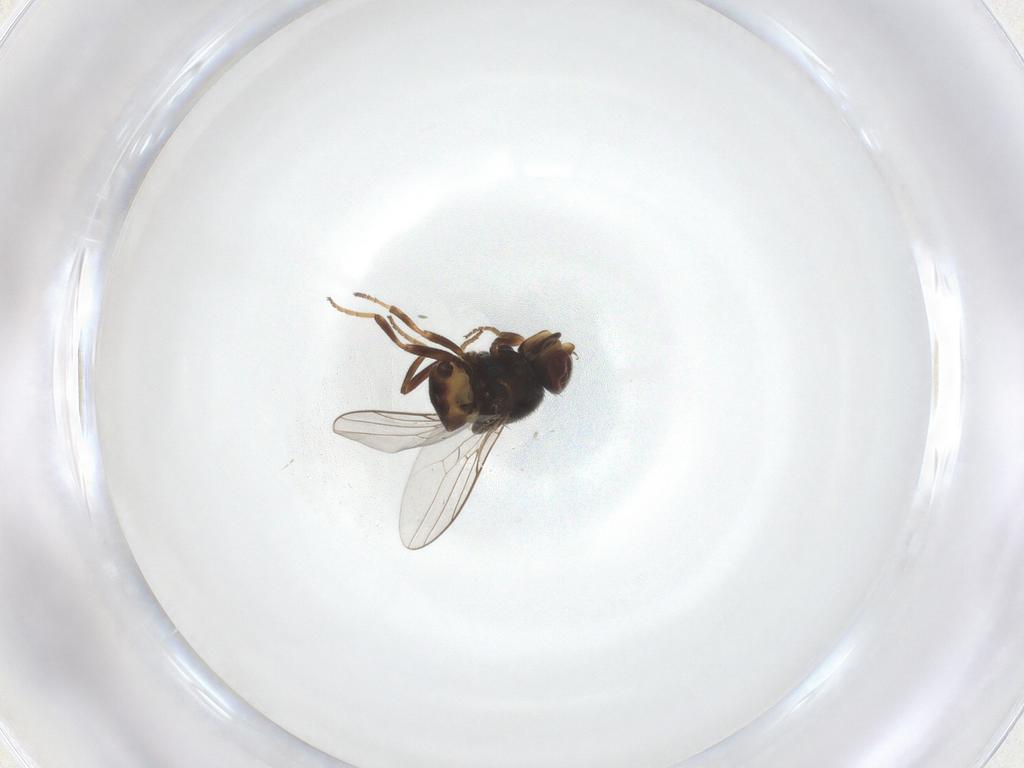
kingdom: Animalia
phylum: Arthropoda
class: Insecta
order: Diptera
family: Chloropidae
